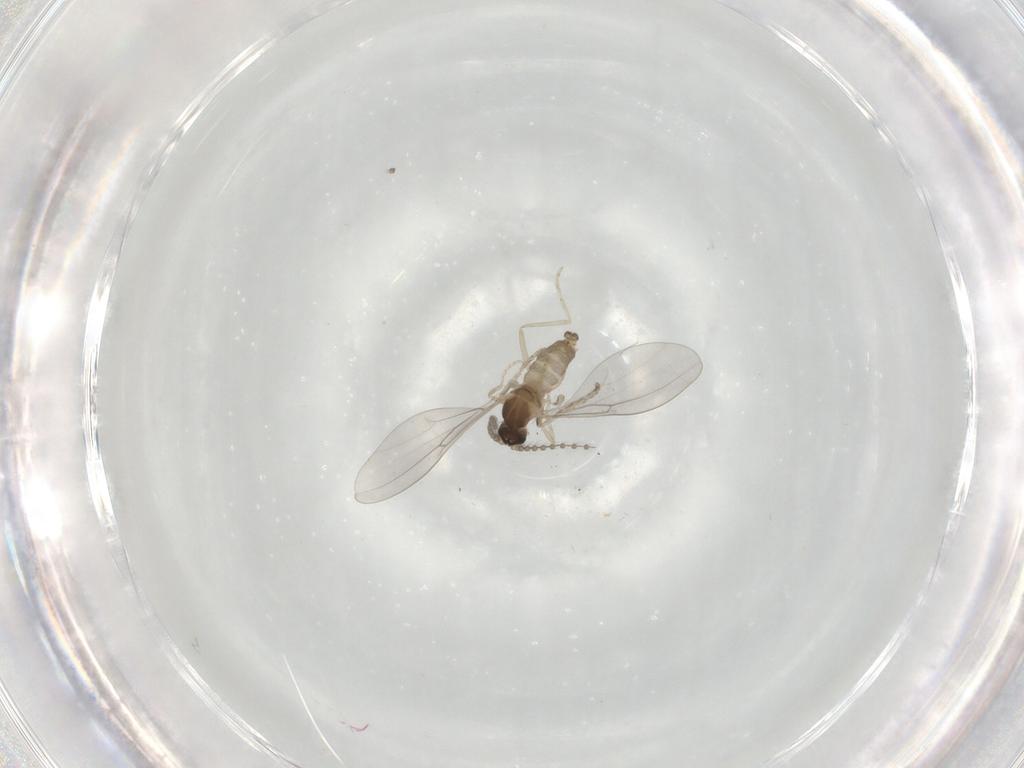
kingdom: Animalia
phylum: Arthropoda
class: Insecta
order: Diptera
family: Cecidomyiidae
